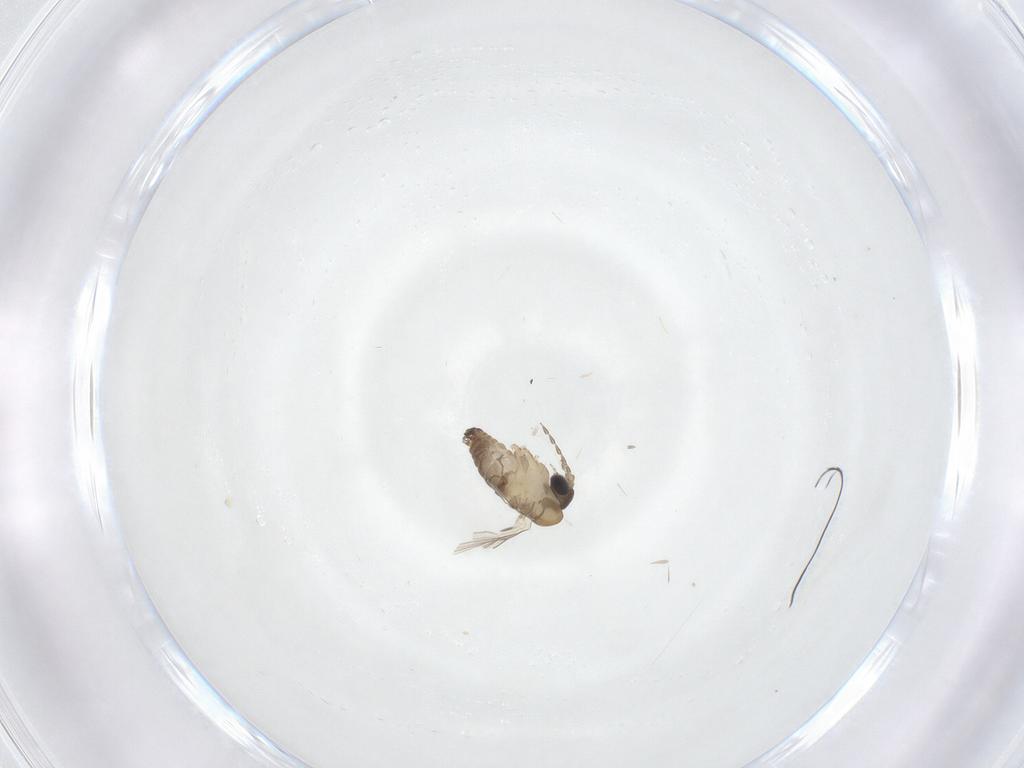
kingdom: Animalia
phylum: Arthropoda
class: Insecta
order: Diptera
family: Psychodidae
